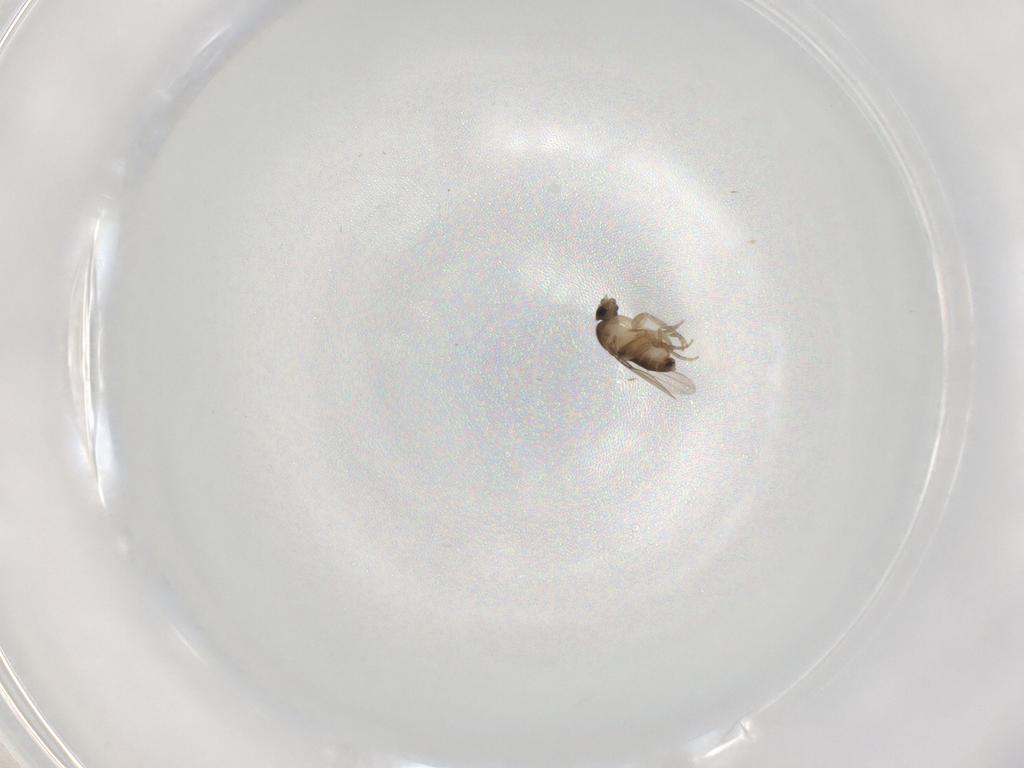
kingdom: Animalia
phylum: Arthropoda
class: Insecta
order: Diptera
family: Phoridae
